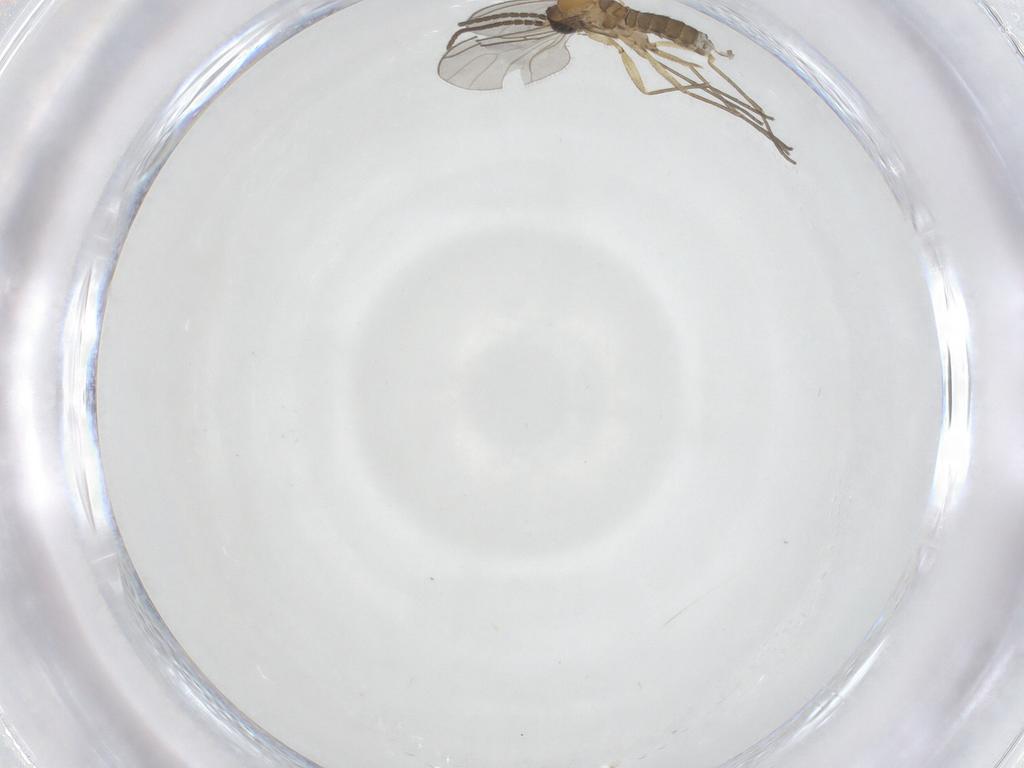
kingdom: Animalia
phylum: Arthropoda
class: Insecta
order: Diptera
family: Sciaridae
